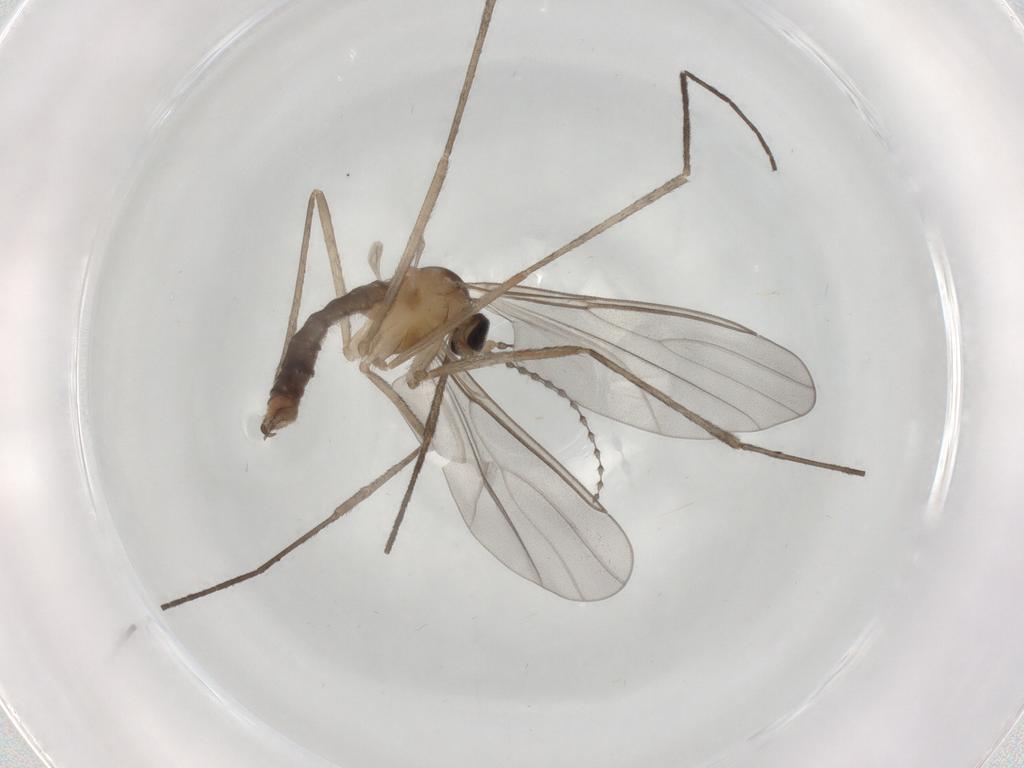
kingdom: Animalia
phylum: Arthropoda
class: Insecta
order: Diptera
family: Cecidomyiidae
